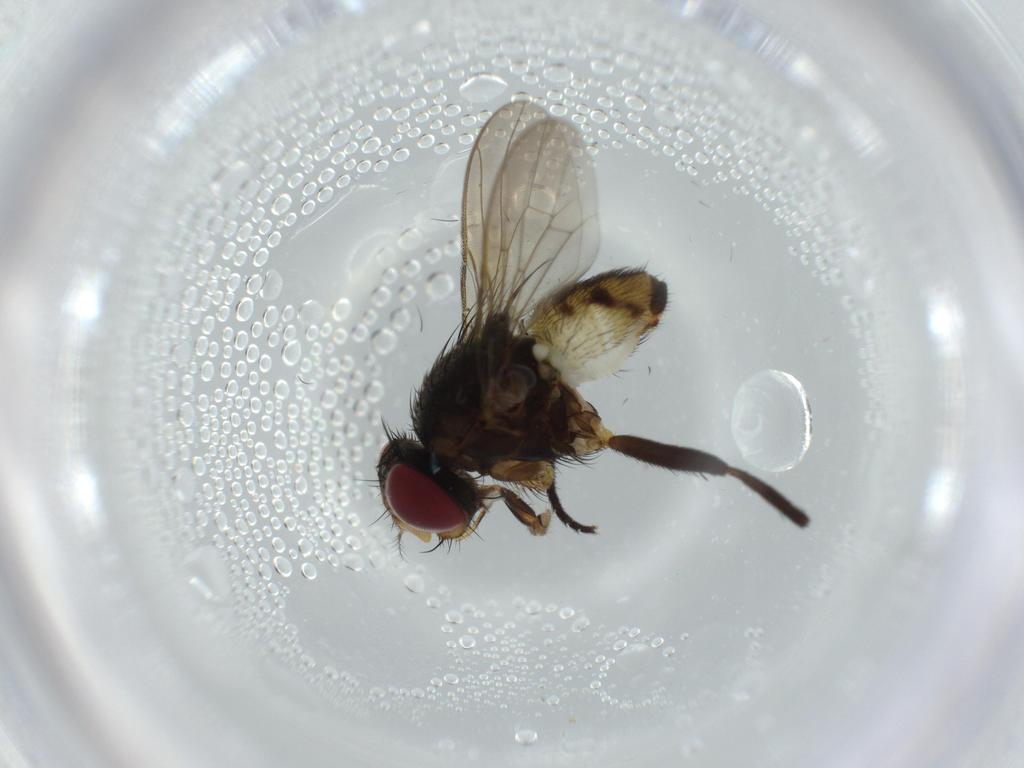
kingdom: Animalia
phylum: Arthropoda
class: Insecta
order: Diptera
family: Anthomyiidae
